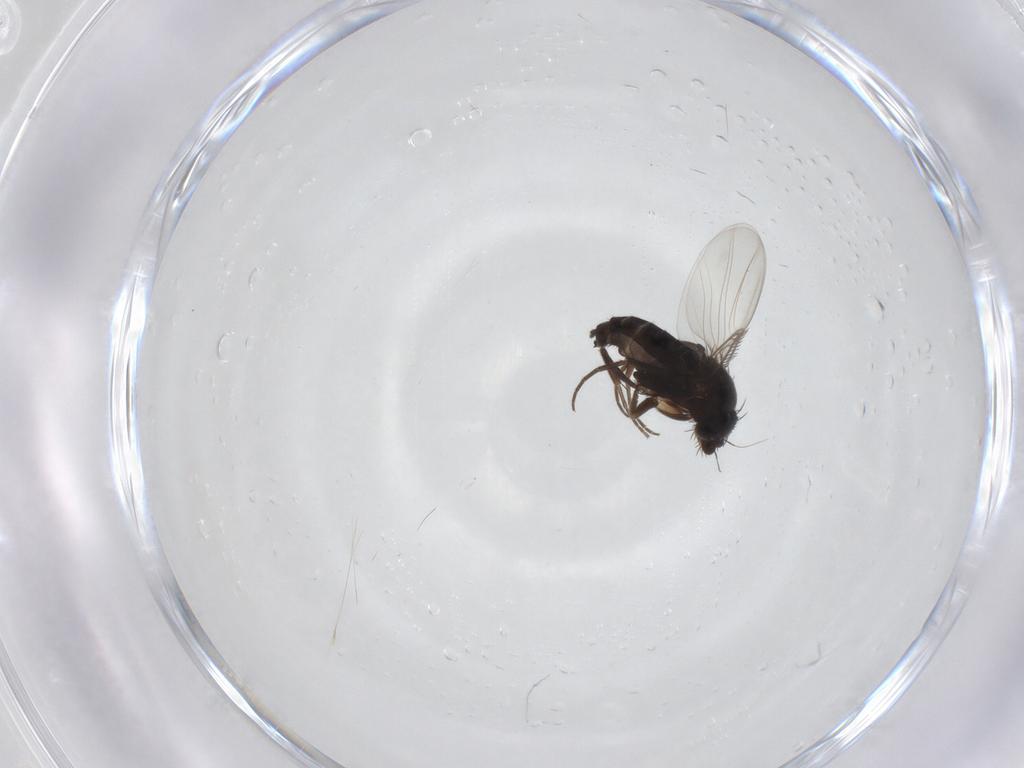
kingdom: Animalia
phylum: Arthropoda
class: Insecta
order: Diptera
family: Phoridae
